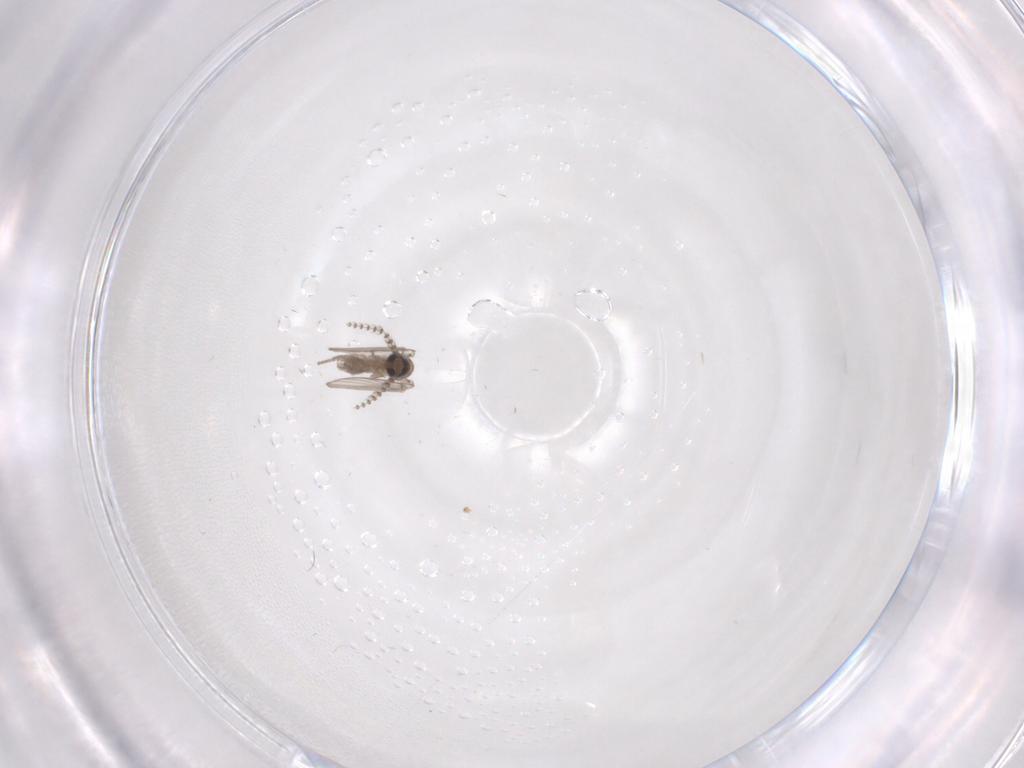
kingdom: Animalia
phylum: Arthropoda
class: Insecta
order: Diptera
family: Psychodidae
